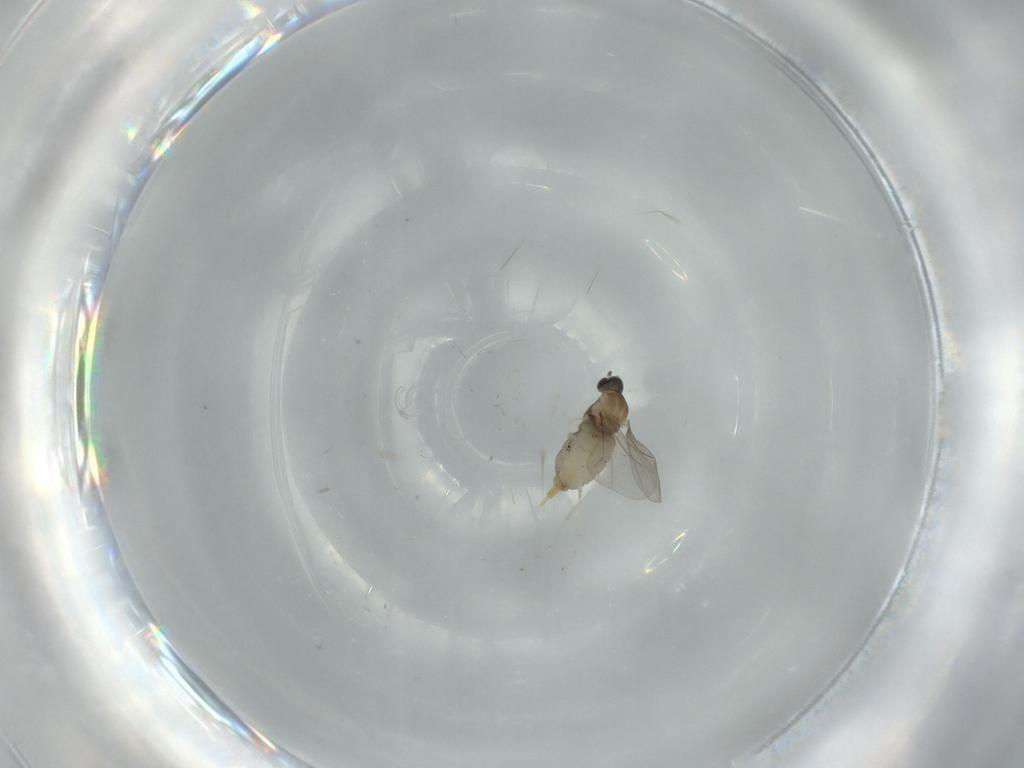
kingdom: Animalia
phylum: Arthropoda
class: Insecta
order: Diptera
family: Cecidomyiidae
